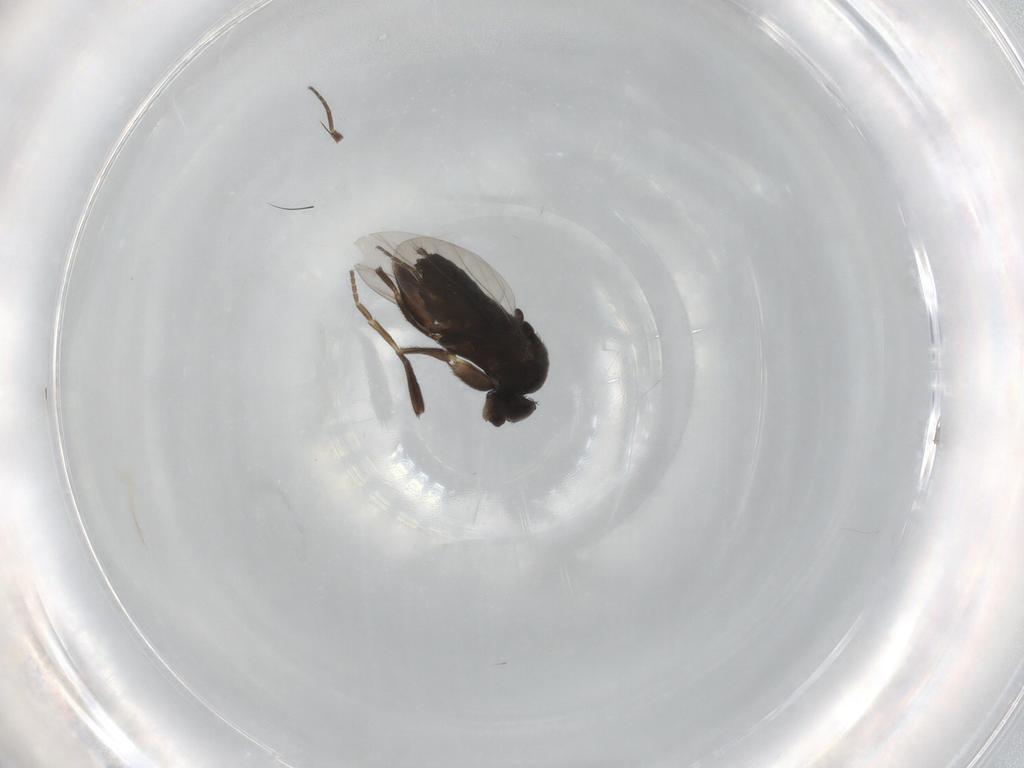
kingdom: Animalia
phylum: Arthropoda
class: Insecta
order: Diptera
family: Phoridae
